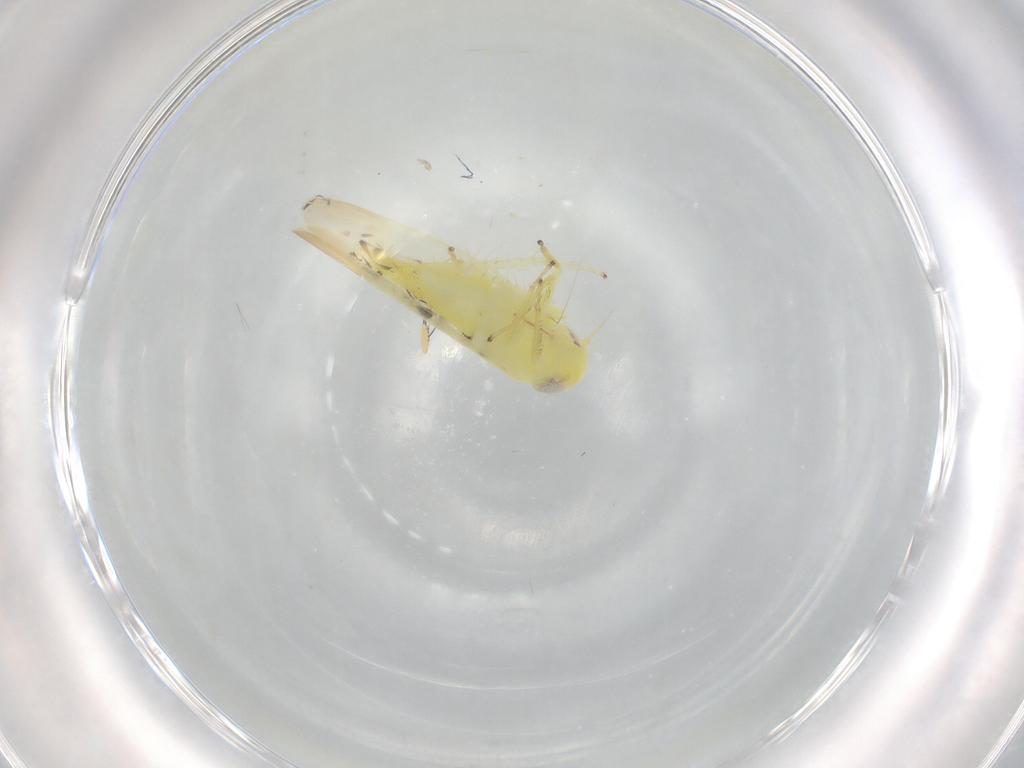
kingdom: Animalia
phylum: Arthropoda
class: Insecta
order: Hemiptera
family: Cicadellidae
